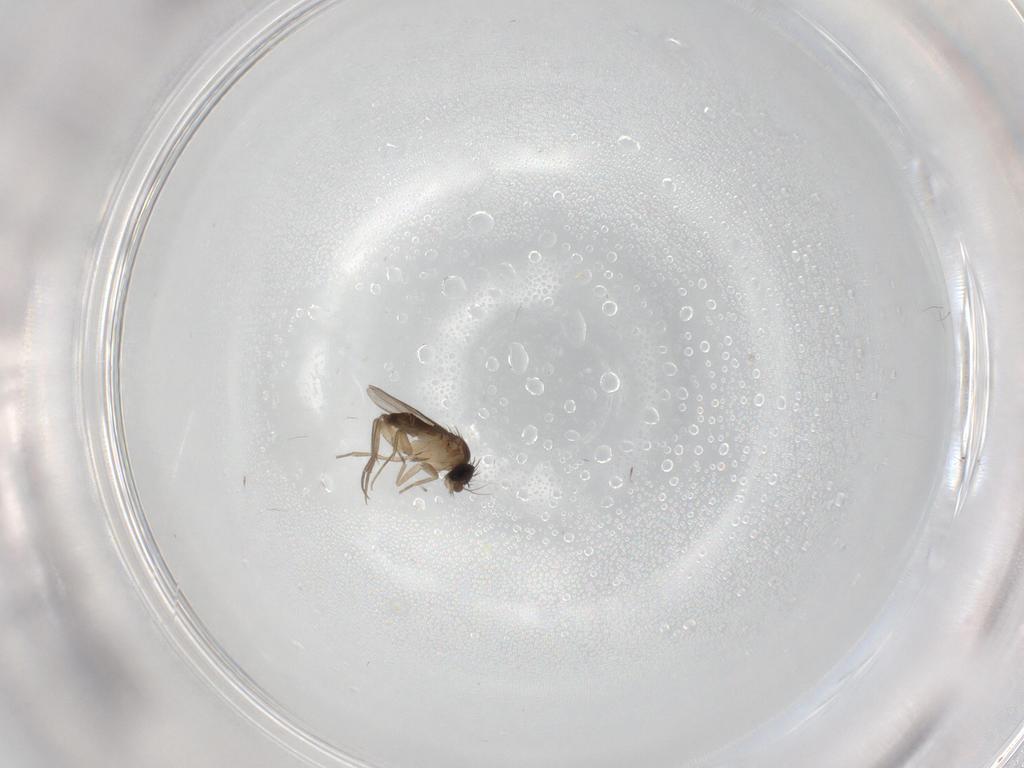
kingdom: Animalia
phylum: Arthropoda
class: Insecta
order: Diptera
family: Phoridae
